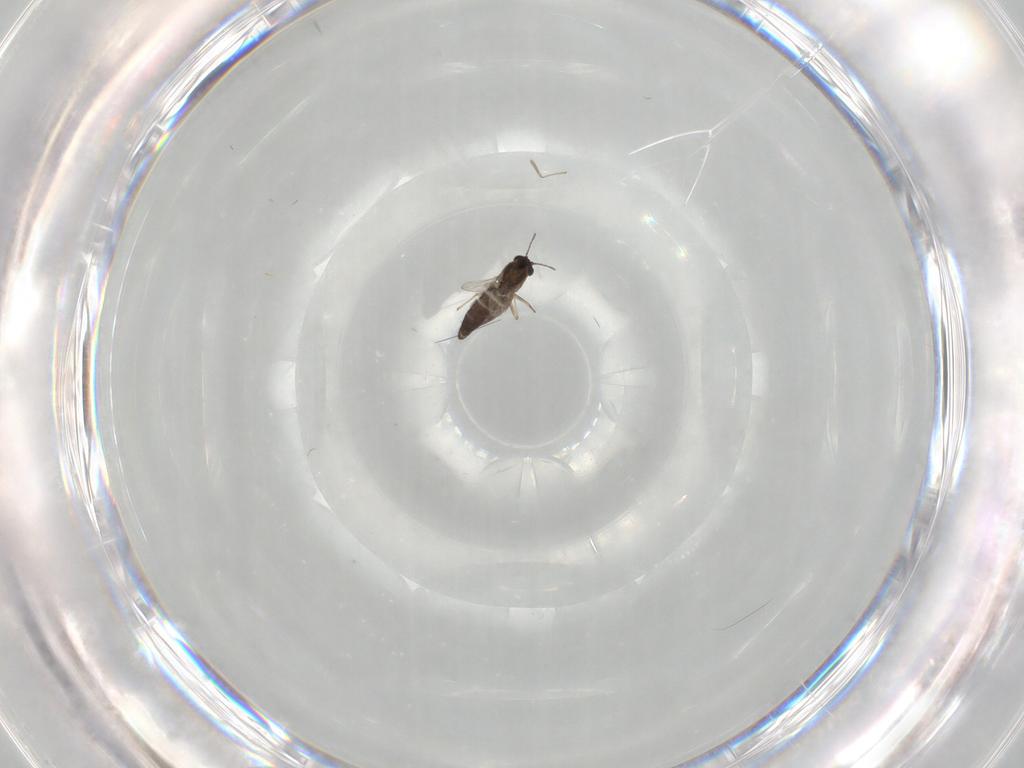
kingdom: Animalia
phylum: Arthropoda
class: Insecta
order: Diptera
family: Chironomidae
